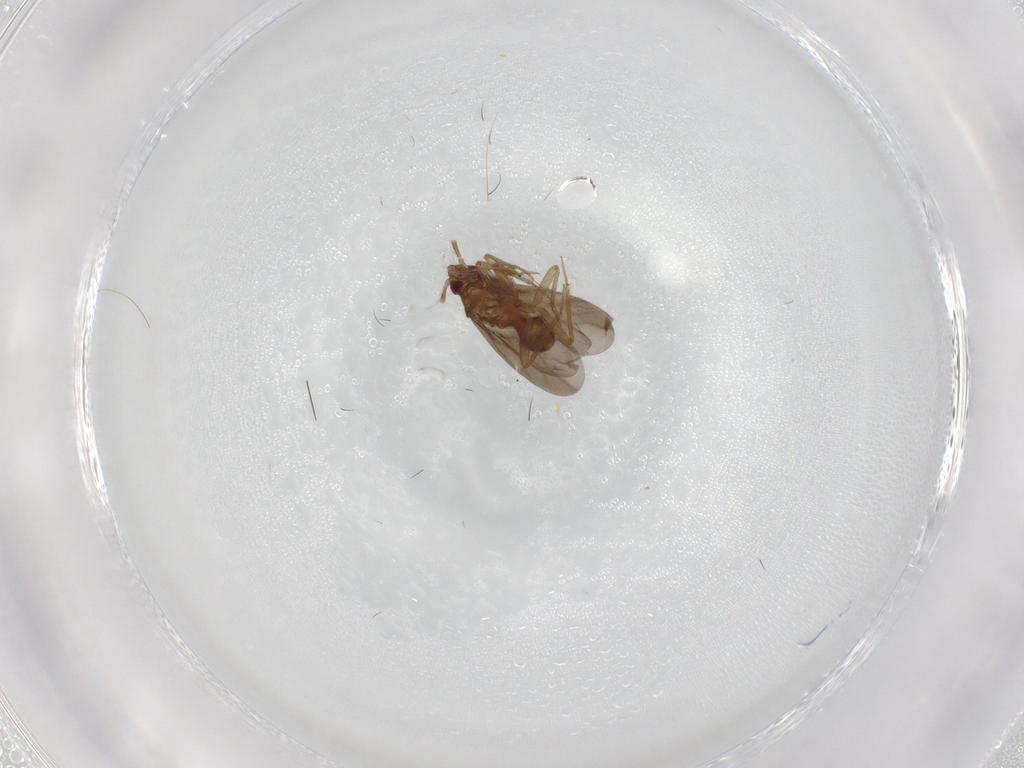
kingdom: Animalia
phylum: Arthropoda
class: Insecta
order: Hemiptera
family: Ceratocombidae
